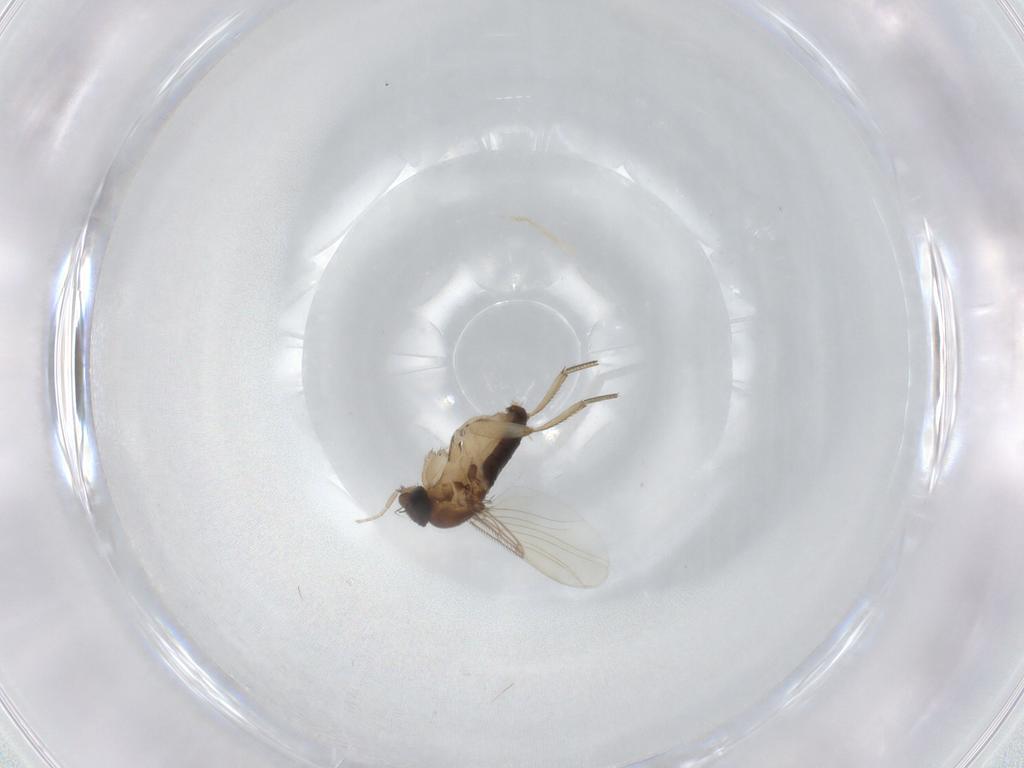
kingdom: Animalia
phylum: Arthropoda
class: Insecta
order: Diptera
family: Phoridae
